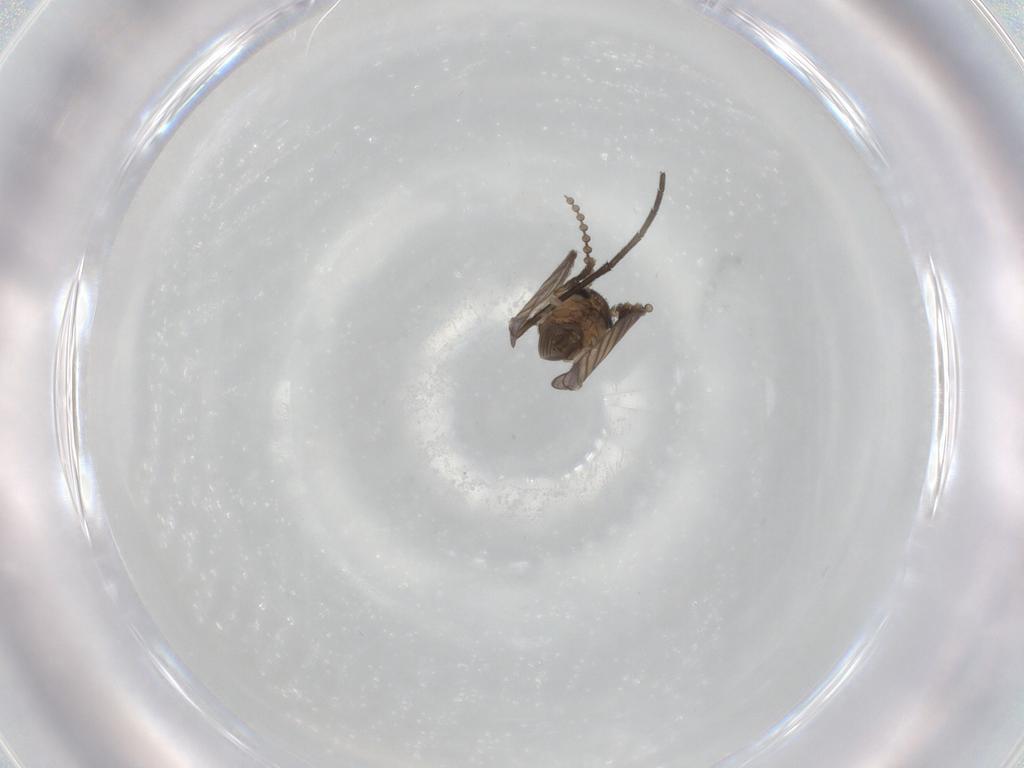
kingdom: Animalia
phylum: Arthropoda
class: Insecta
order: Diptera
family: Psychodidae
